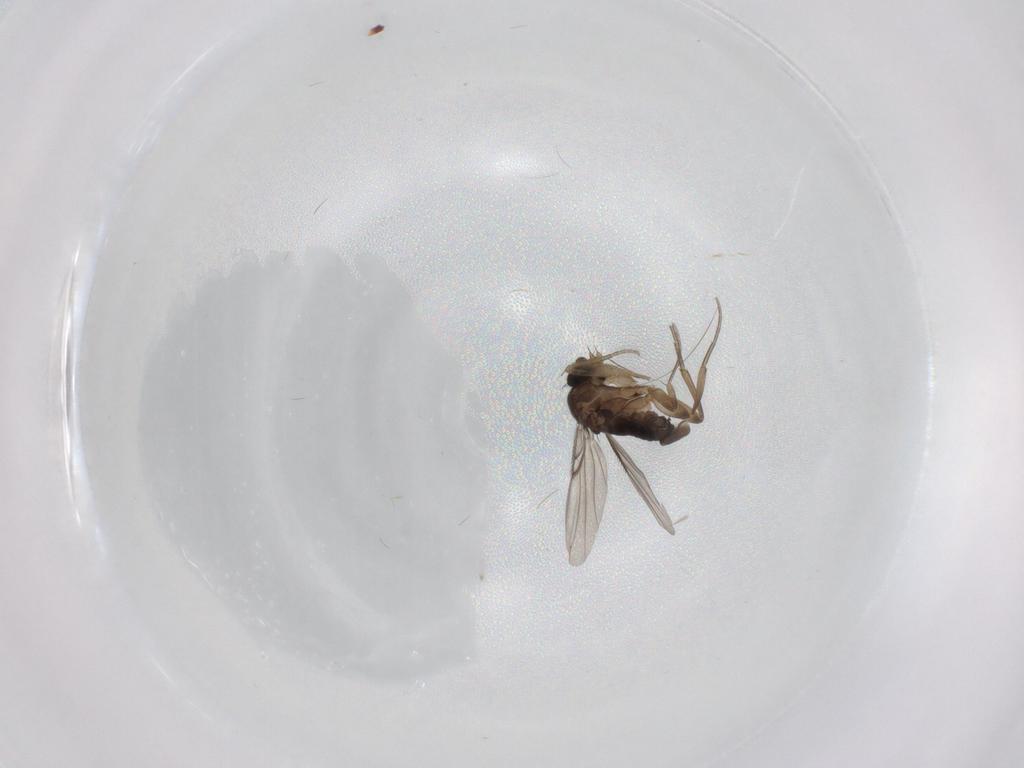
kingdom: Animalia
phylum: Arthropoda
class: Insecta
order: Diptera
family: Phoridae
